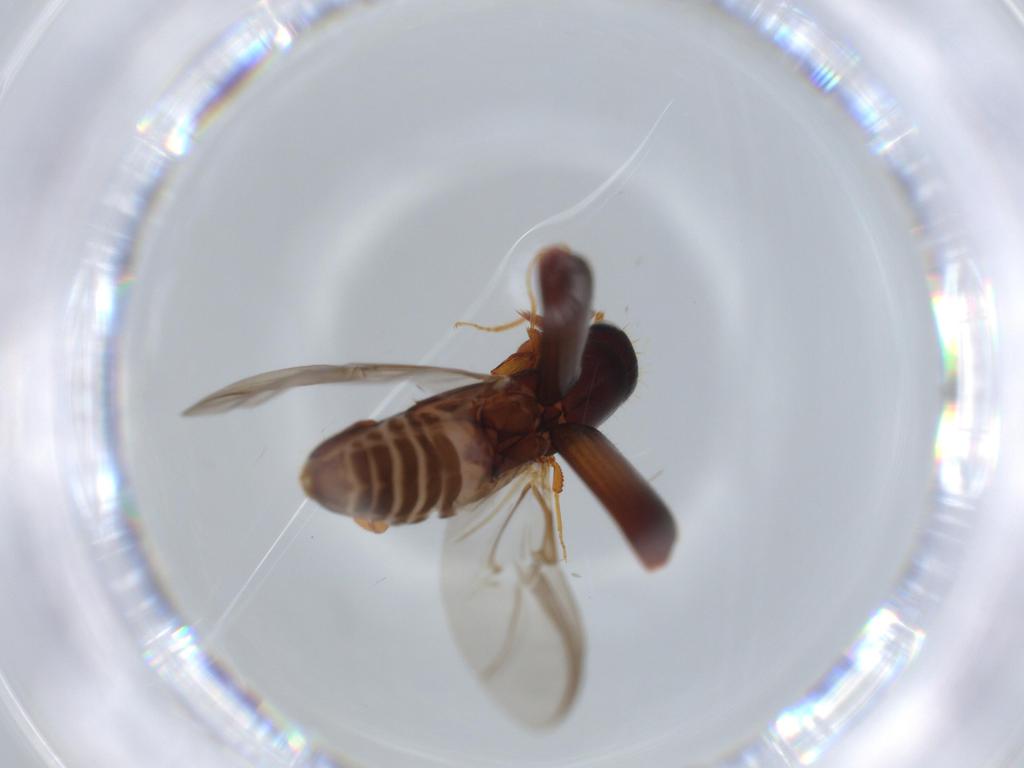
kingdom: Animalia
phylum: Arthropoda
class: Insecta
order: Coleoptera
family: Curculionidae
